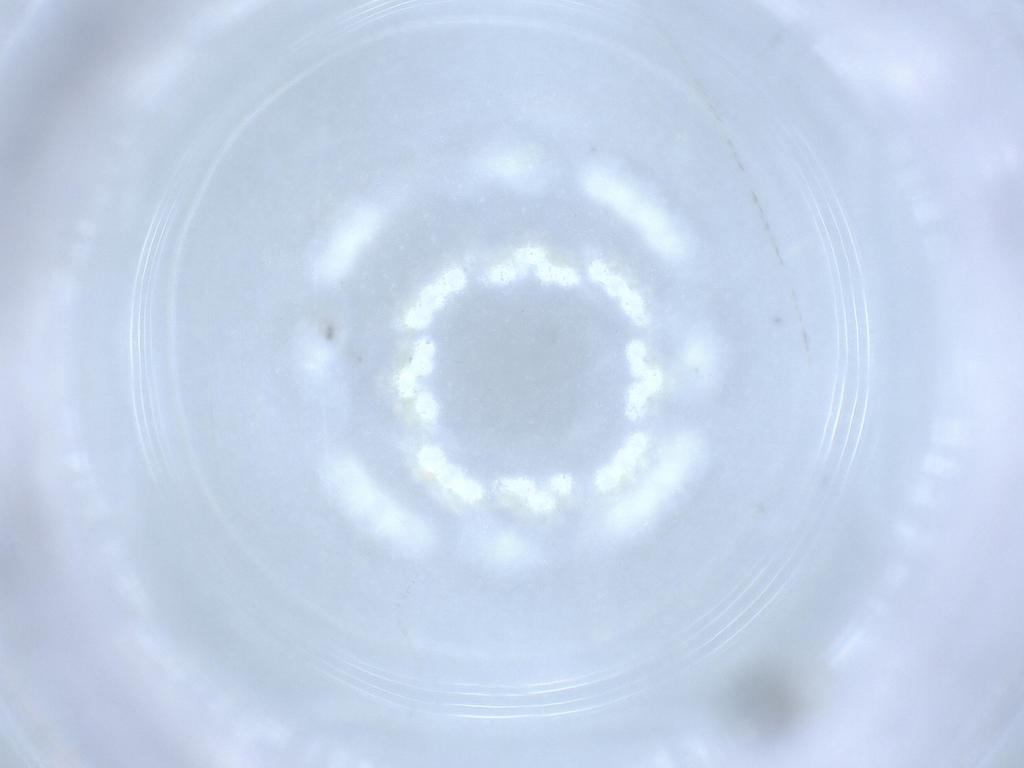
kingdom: Animalia
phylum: Arthropoda
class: Insecta
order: Hymenoptera
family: Scelionidae
